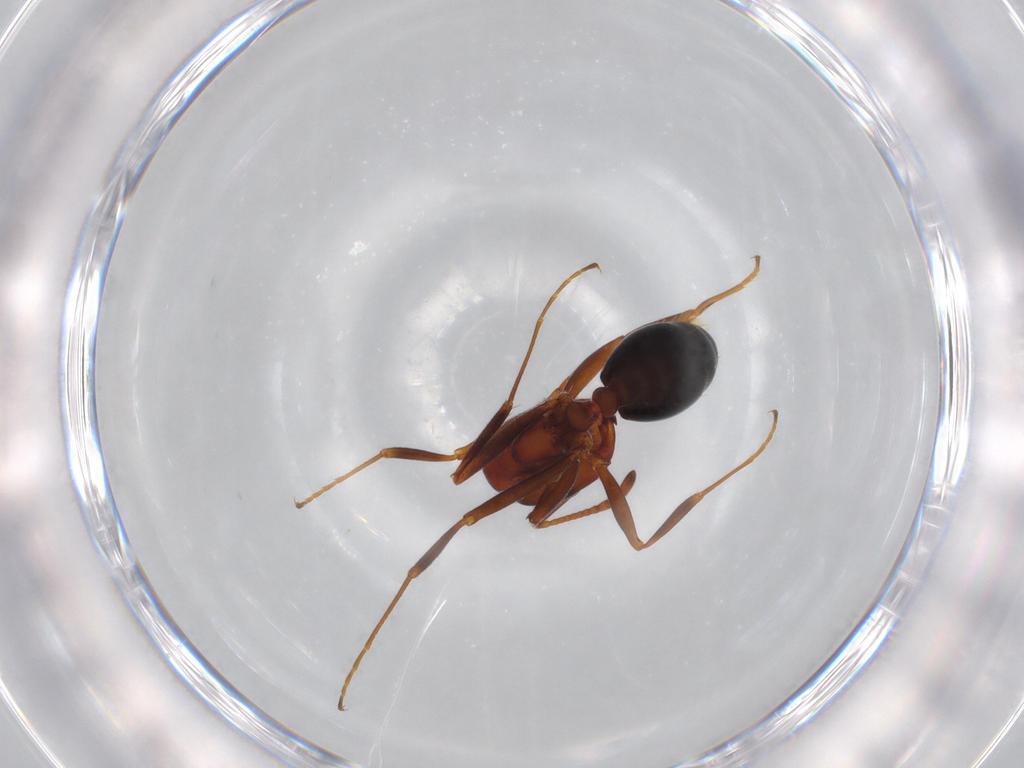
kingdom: Animalia
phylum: Arthropoda
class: Insecta
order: Hymenoptera
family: Formicidae
